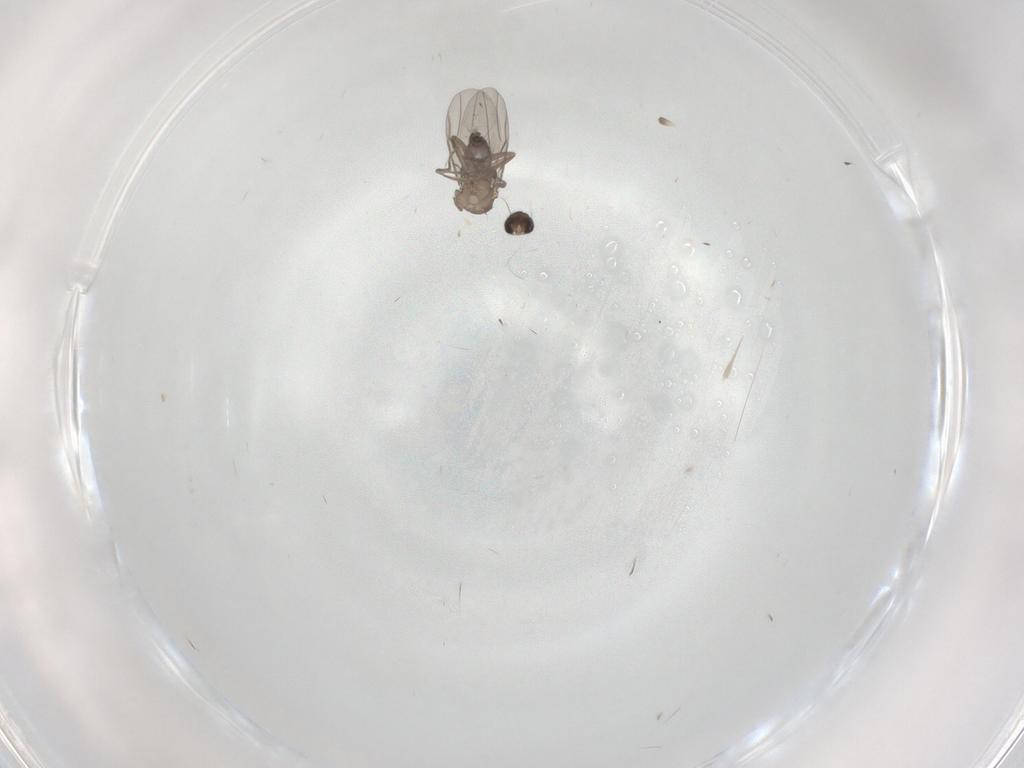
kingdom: Animalia
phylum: Arthropoda
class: Insecta
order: Diptera
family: Phoridae
